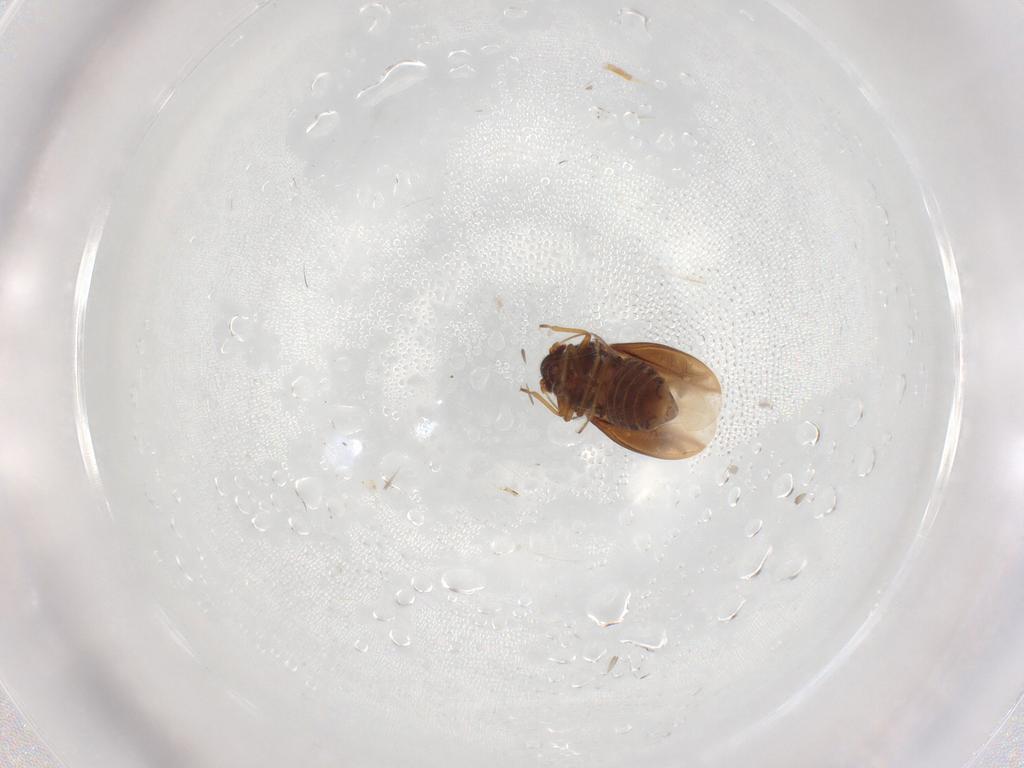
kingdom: Animalia
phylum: Arthropoda
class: Insecta
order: Hemiptera
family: Schizopteridae
